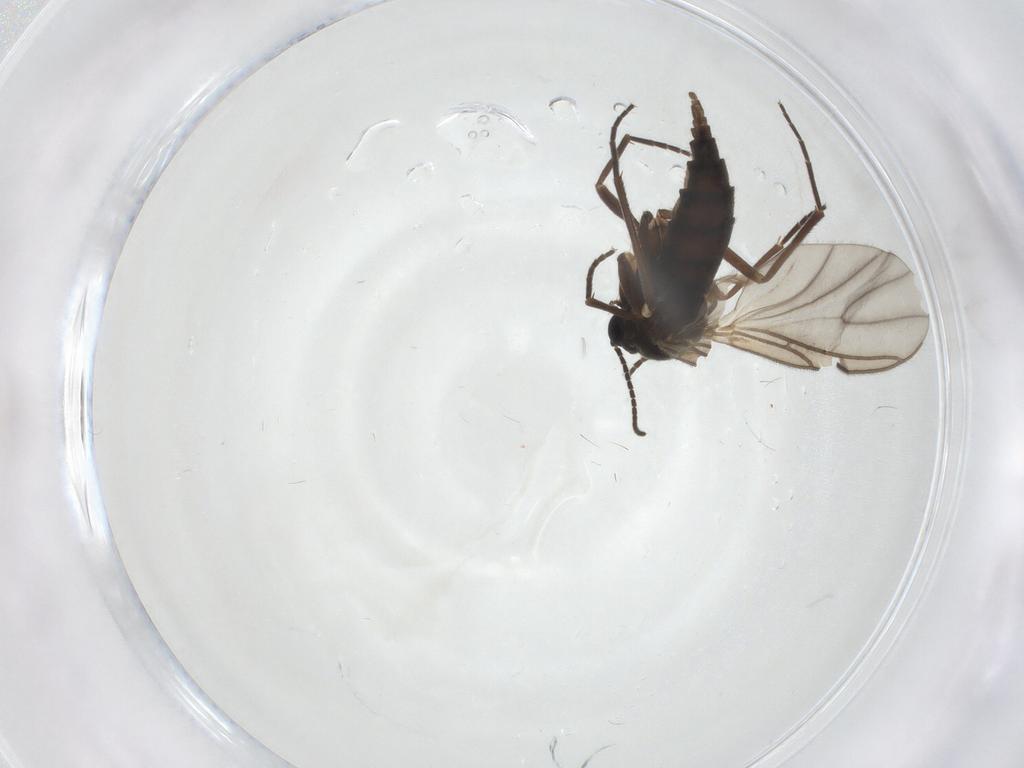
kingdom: Animalia
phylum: Arthropoda
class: Insecta
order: Diptera
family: Sciaridae
